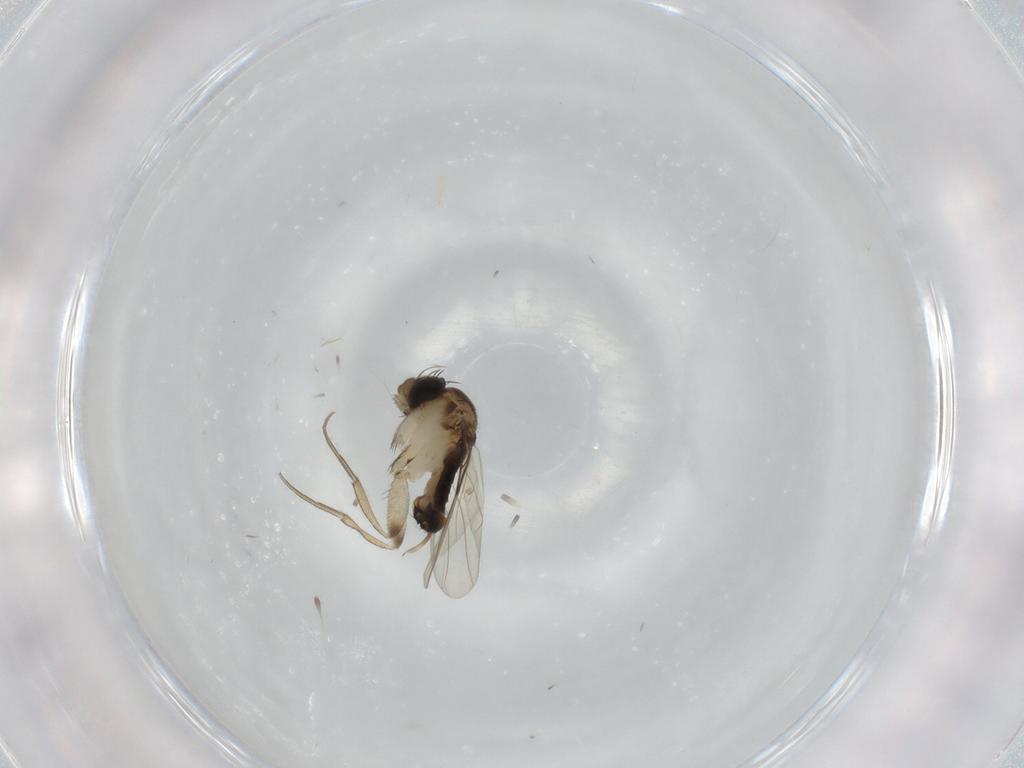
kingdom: Animalia
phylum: Arthropoda
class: Insecta
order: Diptera
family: Phoridae
